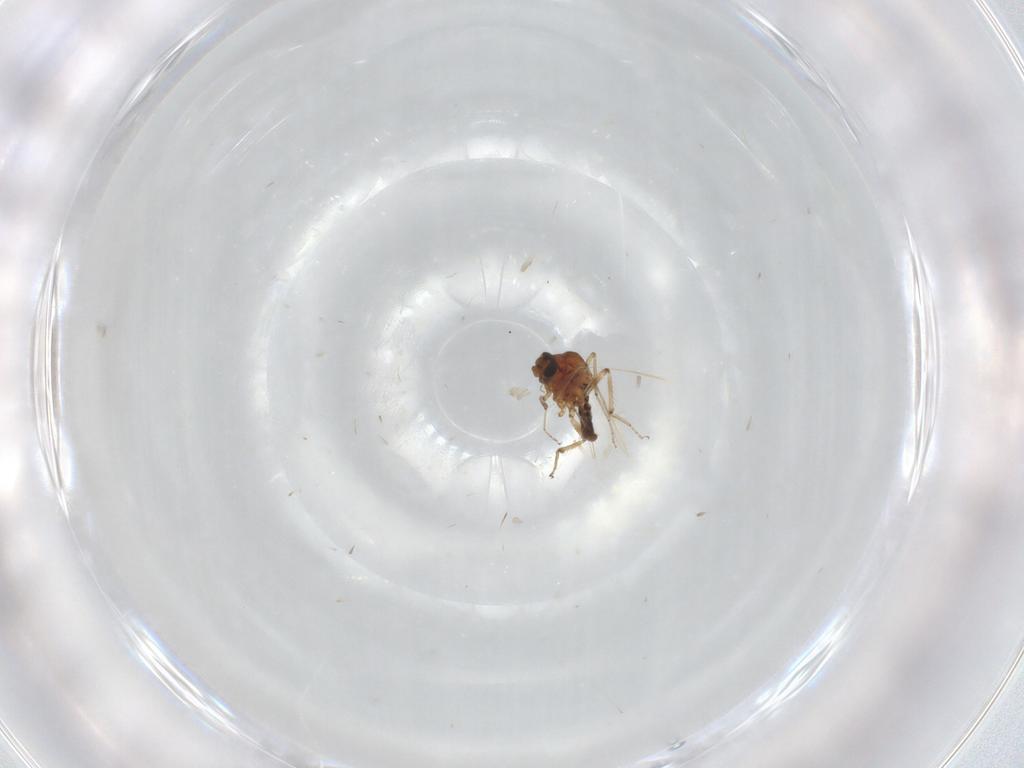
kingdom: Animalia
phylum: Arthropoda
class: Insecta
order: Diptera
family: Ceratopogonidae
